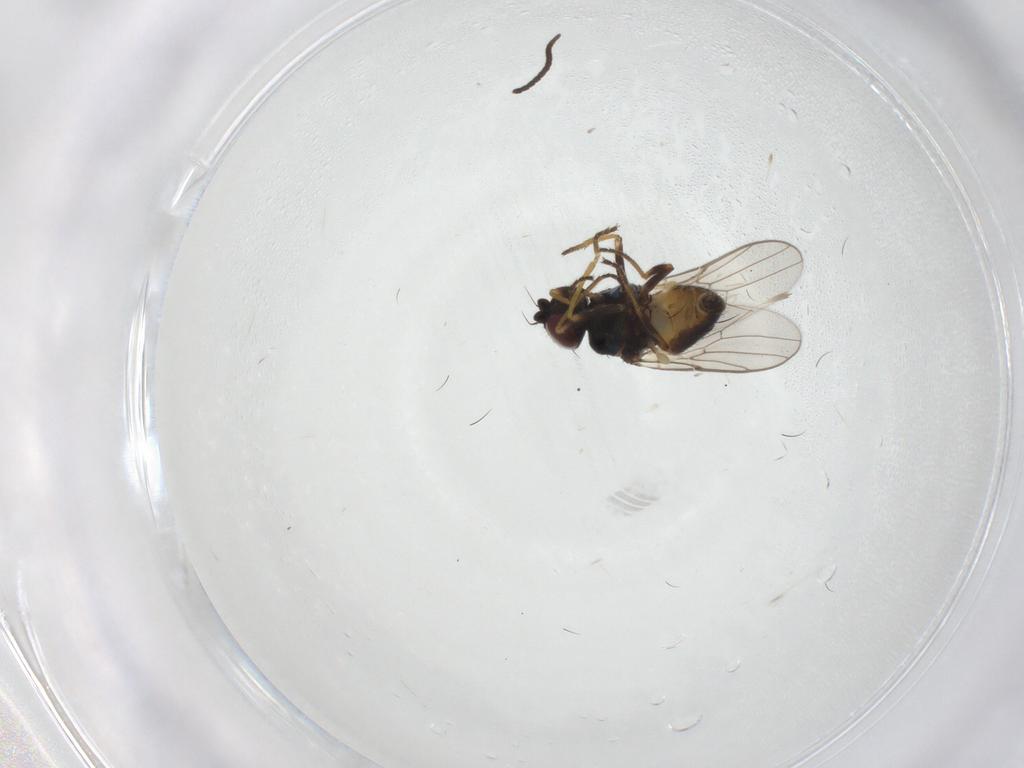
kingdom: Animalia
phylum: Arthropoda
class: Insecta
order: Diptera
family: Chloropidae
